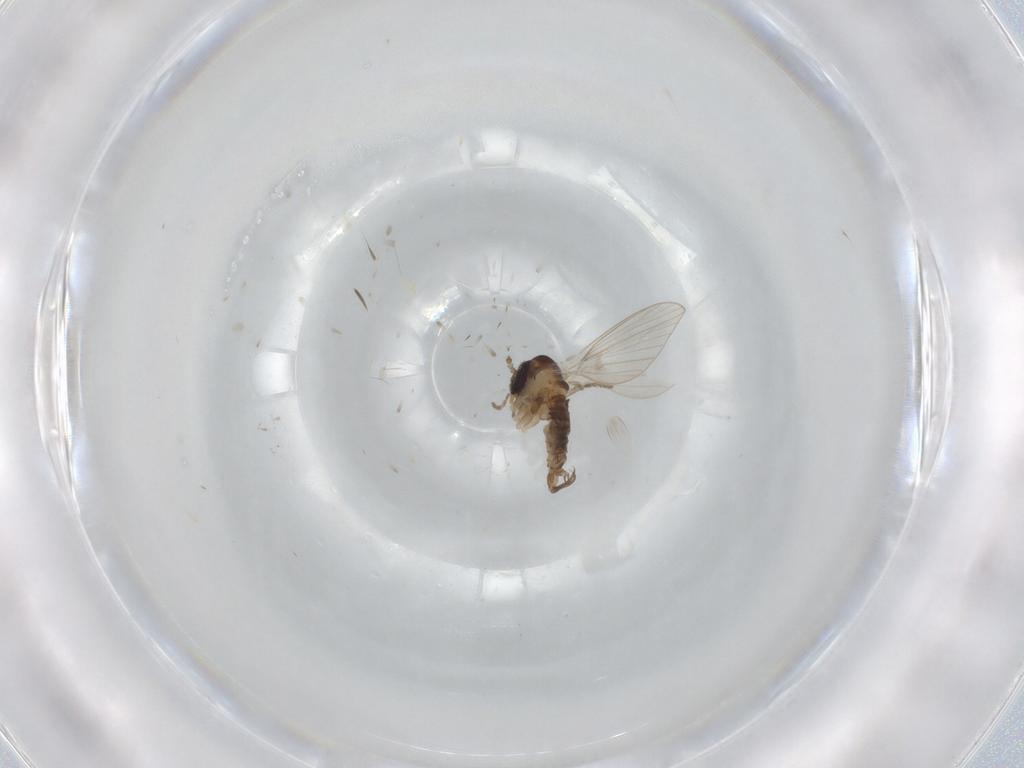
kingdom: Animalia
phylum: Arthropoda
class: Insecta
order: Diptera
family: Psychodidae
